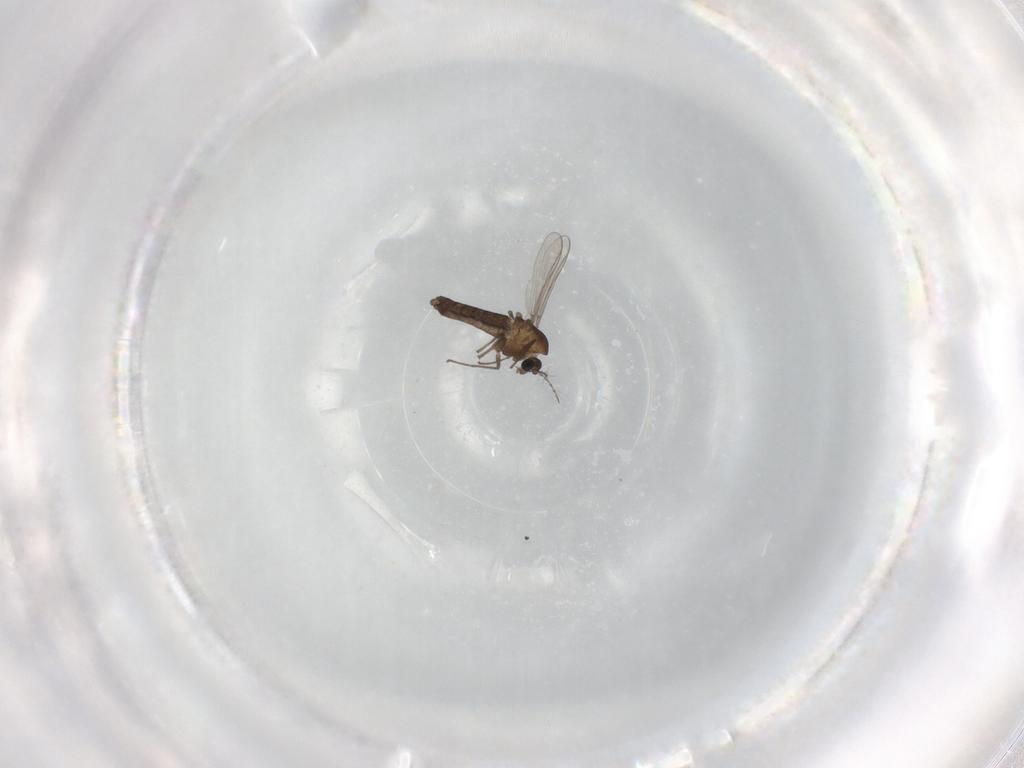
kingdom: Animalia
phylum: Arthropoda
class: Insecta
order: Diptera
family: Chironomidae
